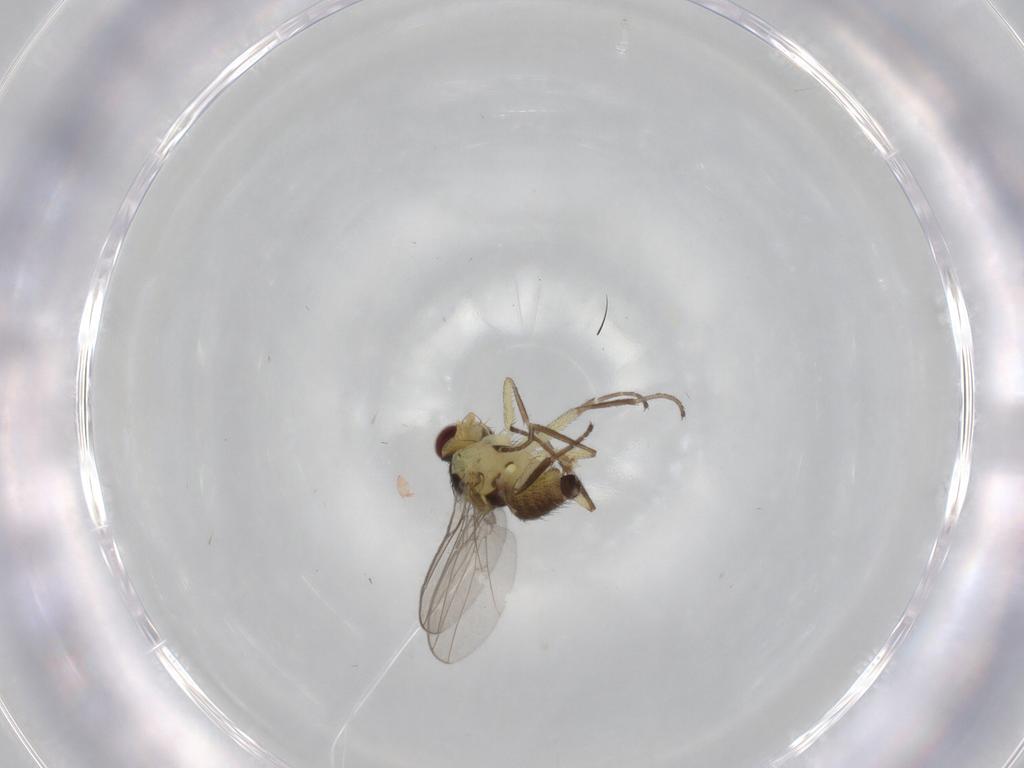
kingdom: Animalia
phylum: Arthropoda
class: Insecta
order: Diptera
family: Agromyzidae
